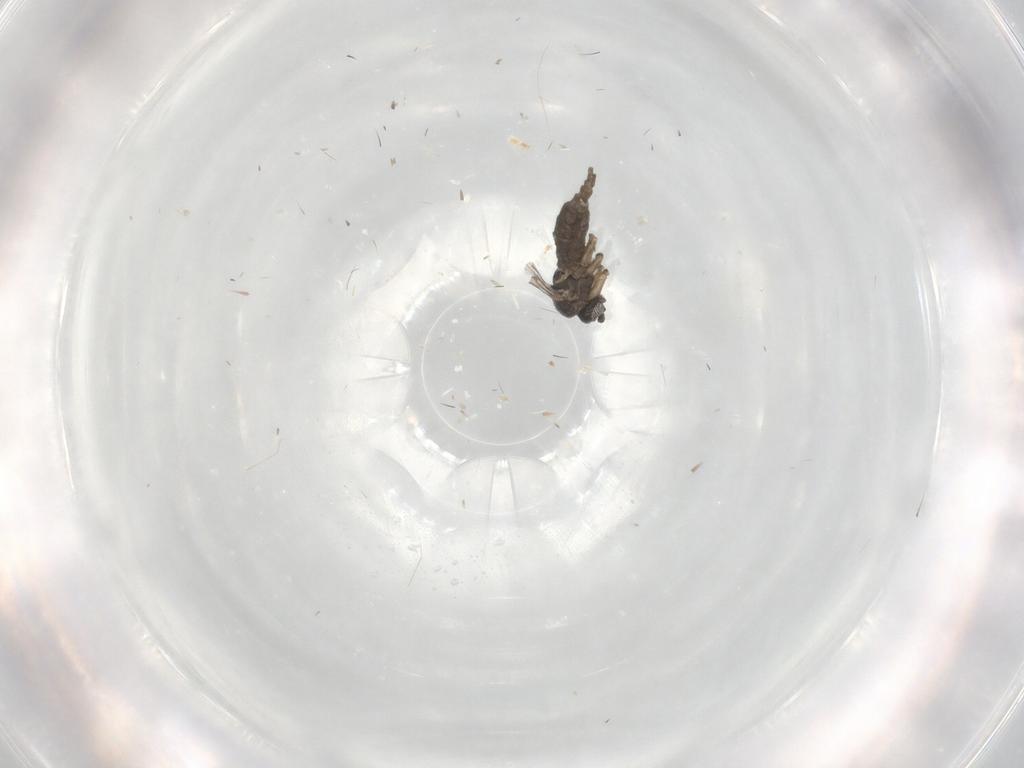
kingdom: Animalia
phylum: Arthropoda
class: Insecta
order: Diptera
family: Sciaridae
